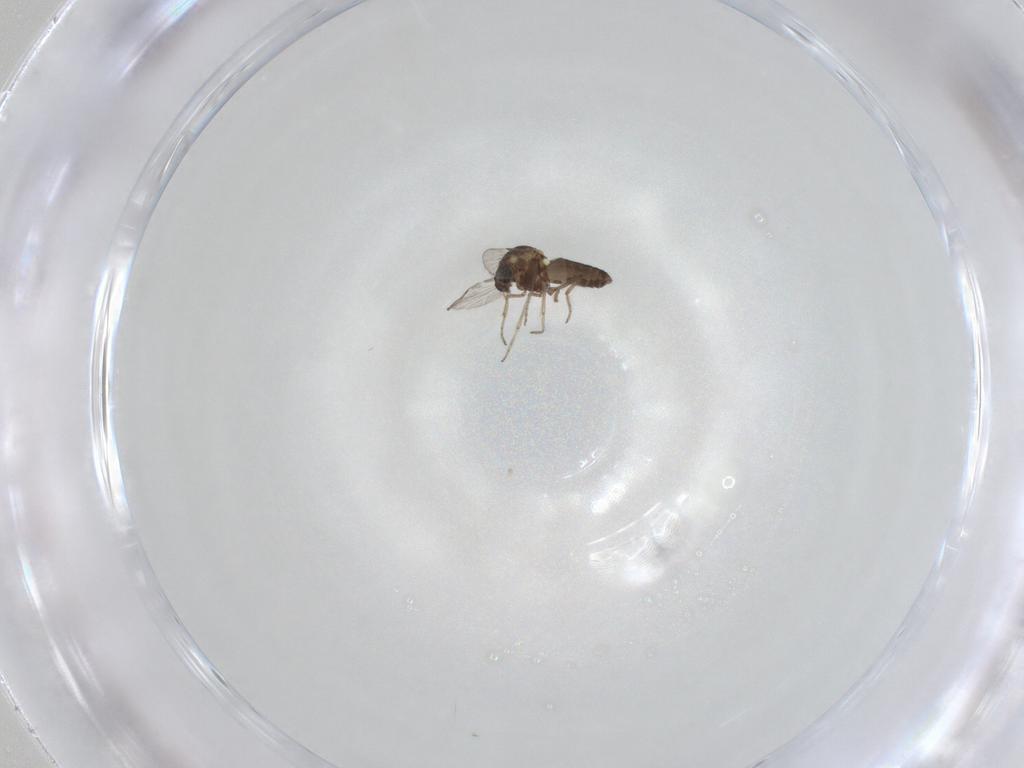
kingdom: Animalia
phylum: Arthropoda
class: Insecta
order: Diptera
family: Ceratopogonidae
